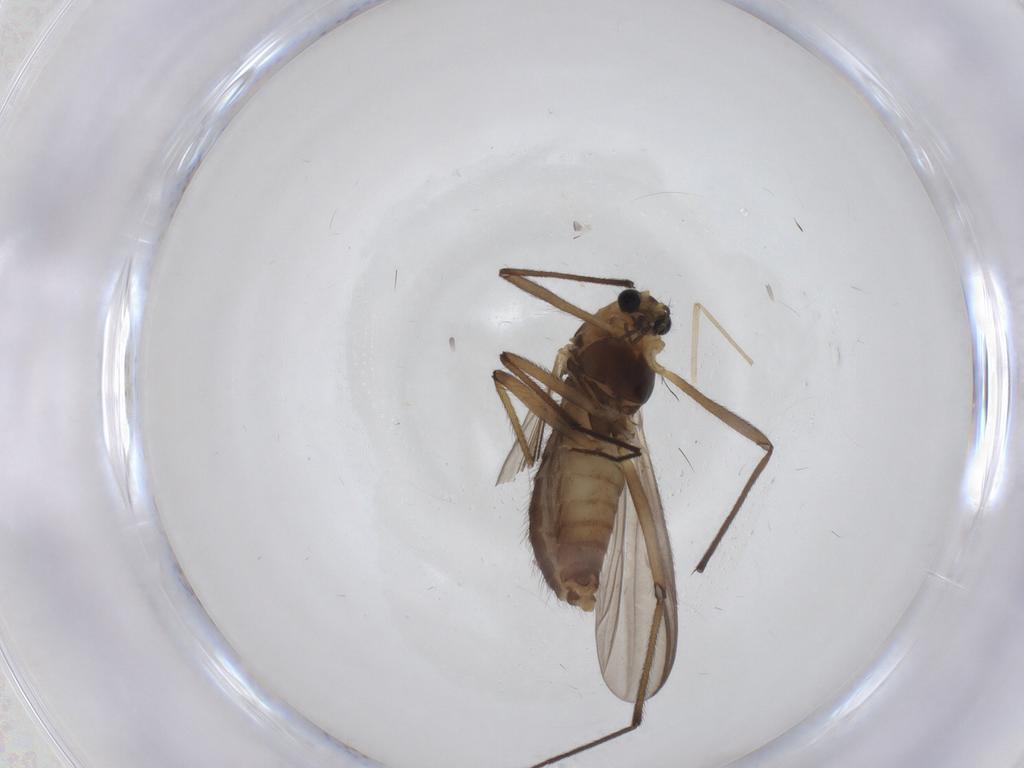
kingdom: Animalia
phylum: Arthropoda
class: Insecta
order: Diptera
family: Chironomidae
